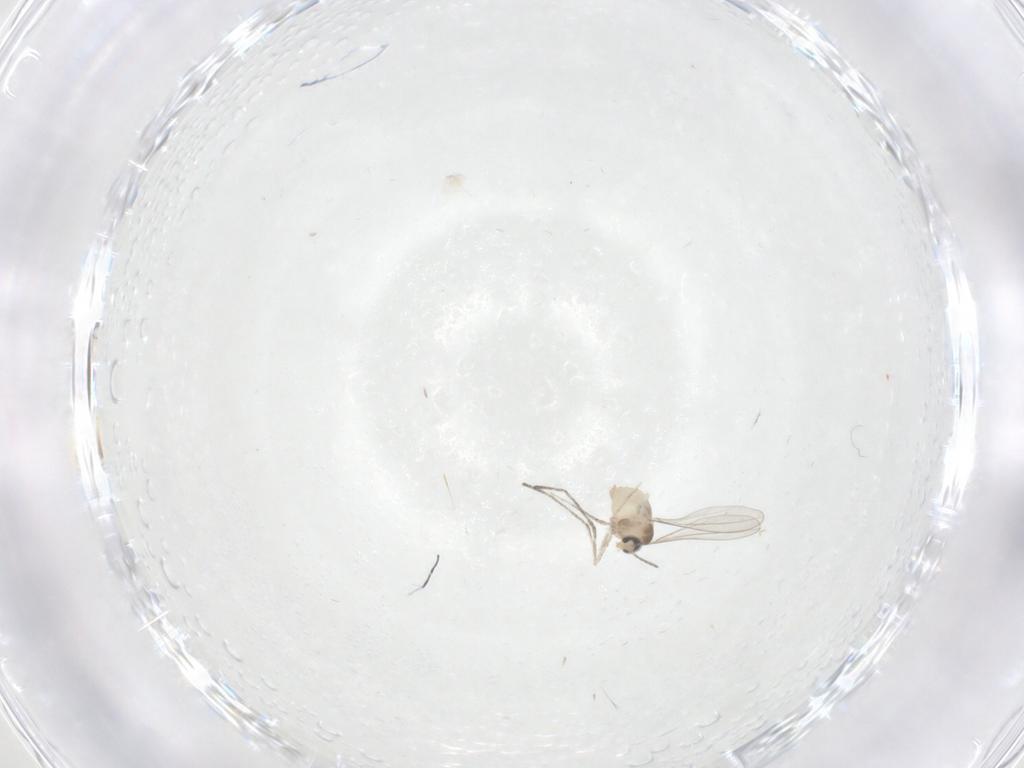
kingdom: Animalia
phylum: Arthropoda
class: Insecta
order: Diptera
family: Cecidomyiidae
